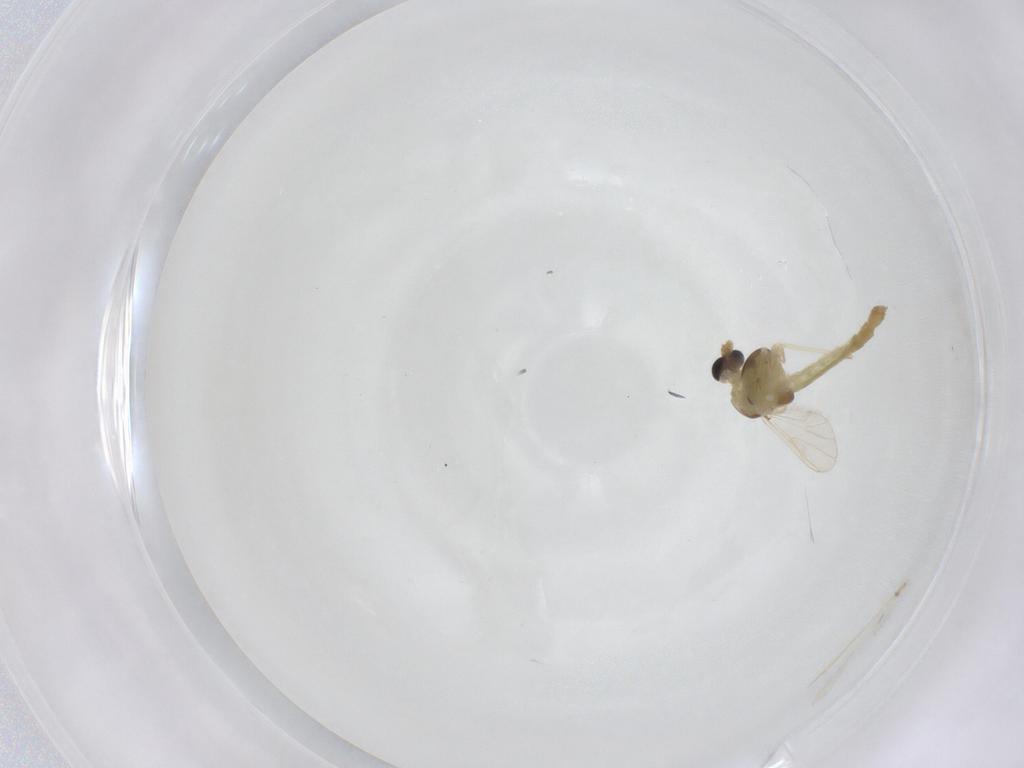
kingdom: Animalia
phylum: Arthropoda
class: Insecta
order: Diptera
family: Chironomidae
